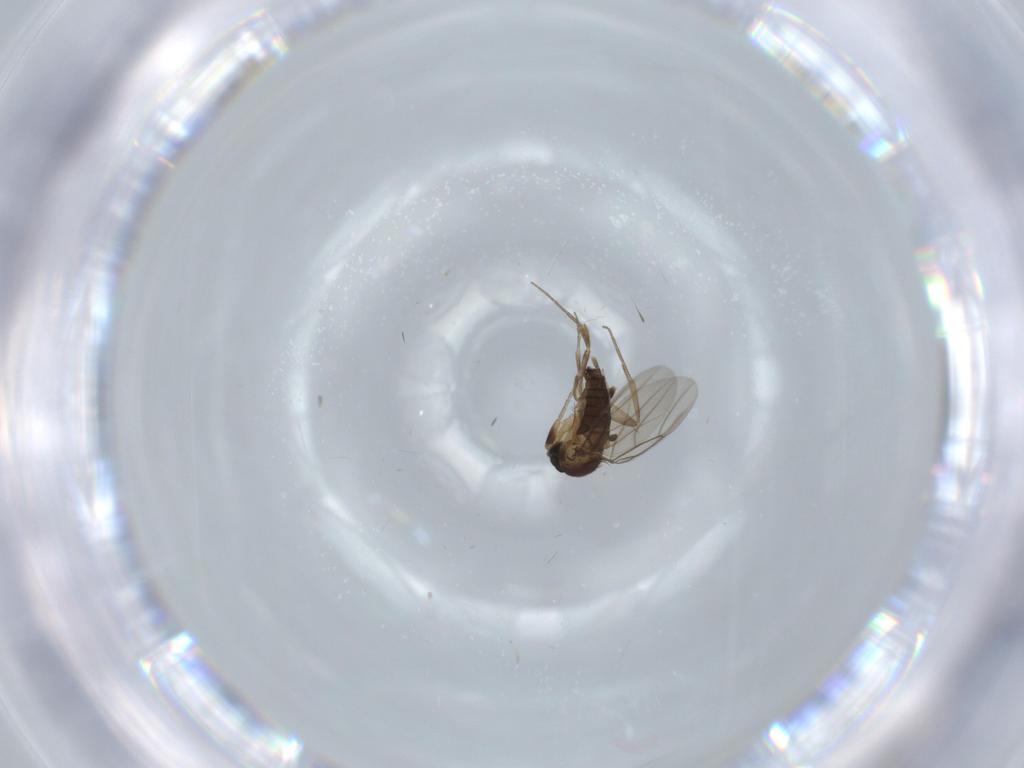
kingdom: Animalia
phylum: Arthropoda
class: Insecta
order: Diptera
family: Phoridae
